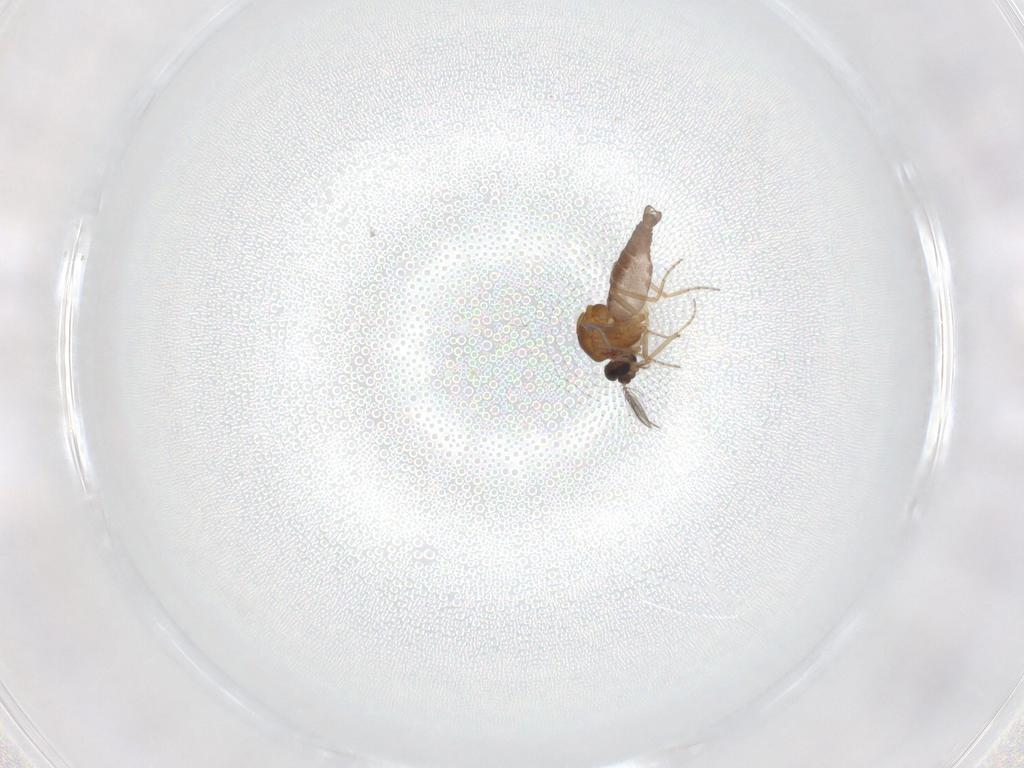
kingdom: Animalia
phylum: Arthropoda
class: Insecta
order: Diptera
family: Ceratopogonidae
